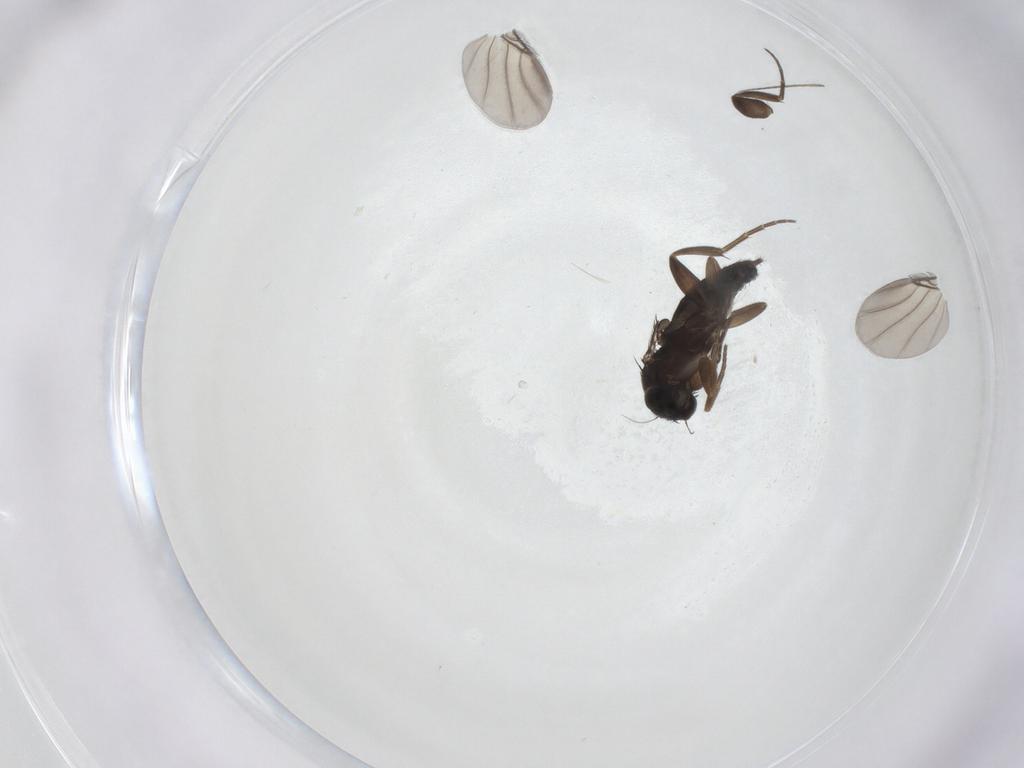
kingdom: Animalia
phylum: Arthropoda
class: Insecta
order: Diptera
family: Phoridae
